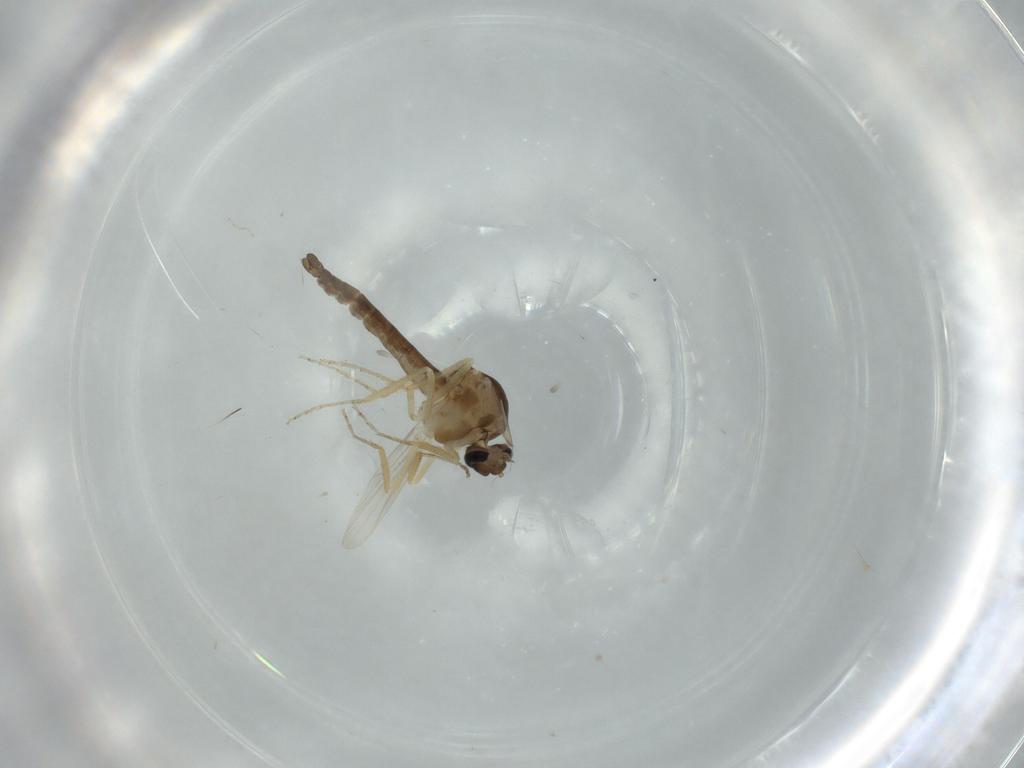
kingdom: Animalia
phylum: Arthropoda
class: Insecta
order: Diptera
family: Ceratopogonidae
